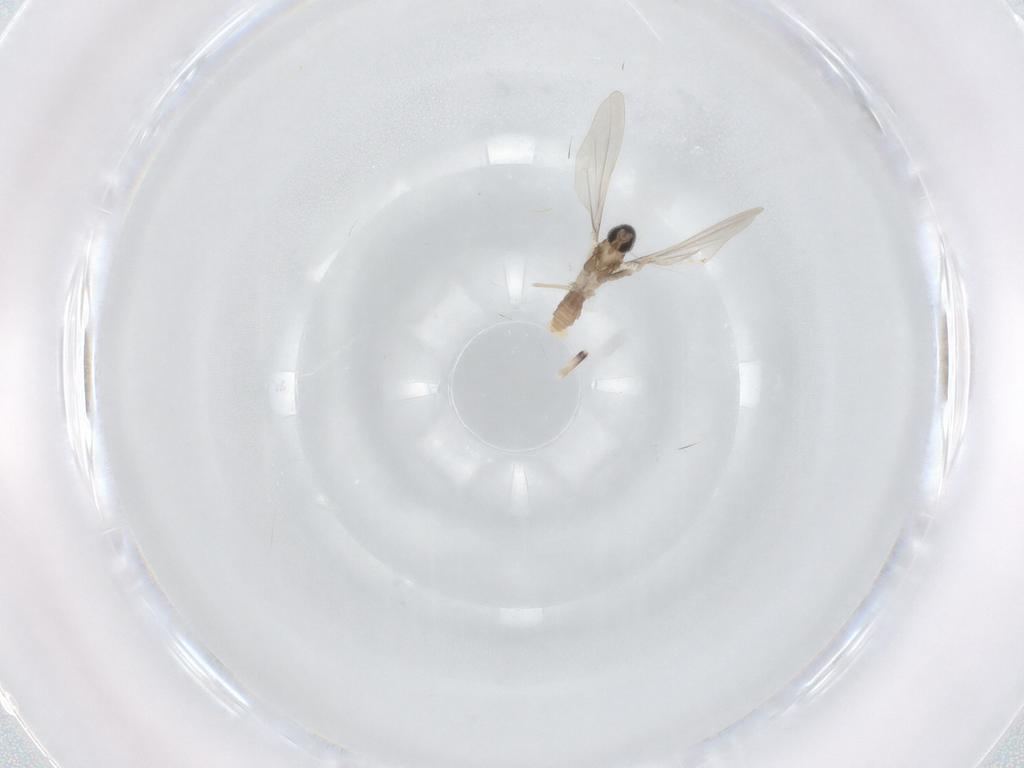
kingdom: Animalia
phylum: Arthropoda
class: Insecta
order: Diptera
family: Cecidomyiidae
